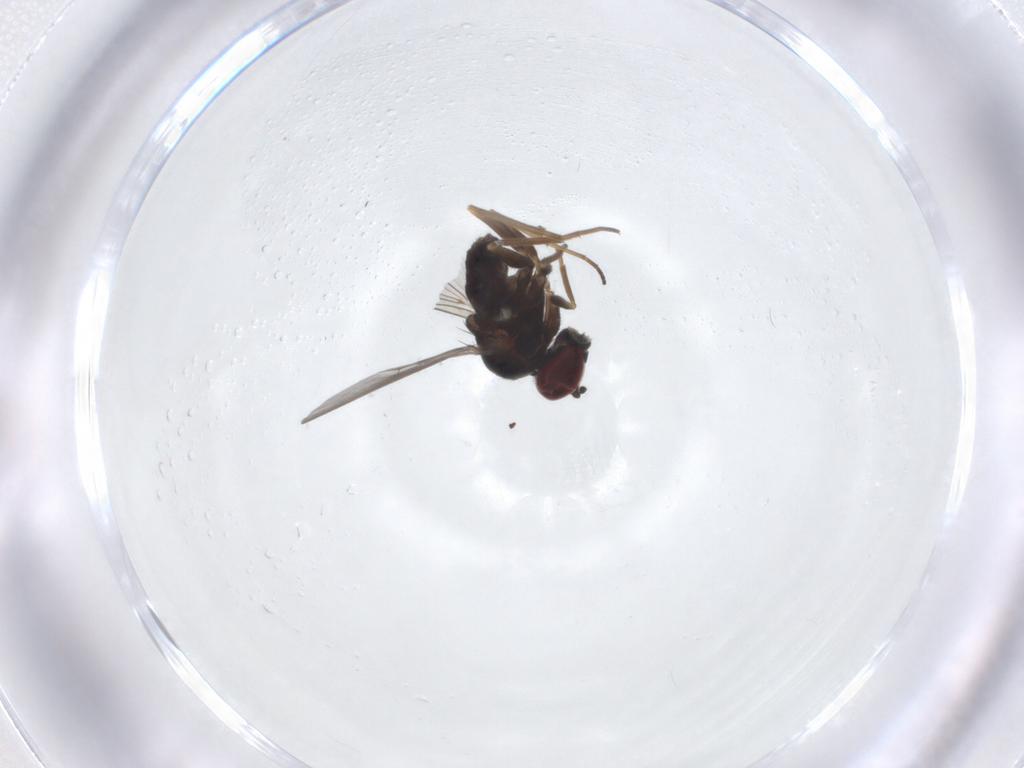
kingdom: Animalia
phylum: Arthropoda
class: Insecta
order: Diptera
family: Dolichopodidae
